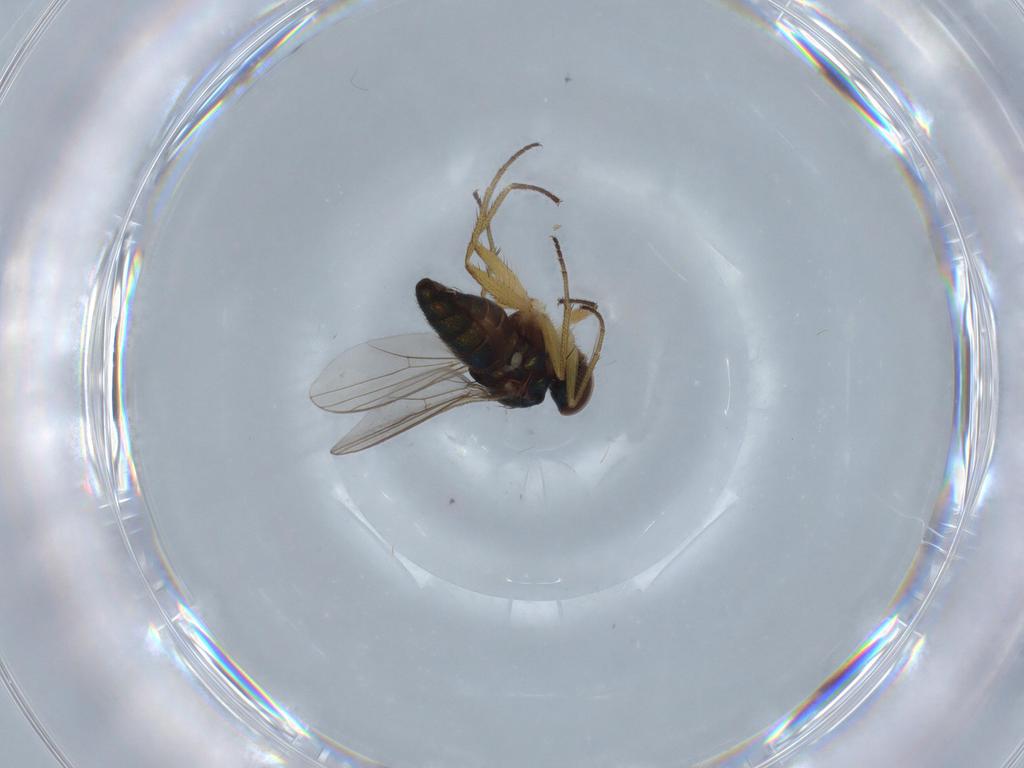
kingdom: Animalia
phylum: Arthropoda
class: Insecta
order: Diptera
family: Dolichopodidae
